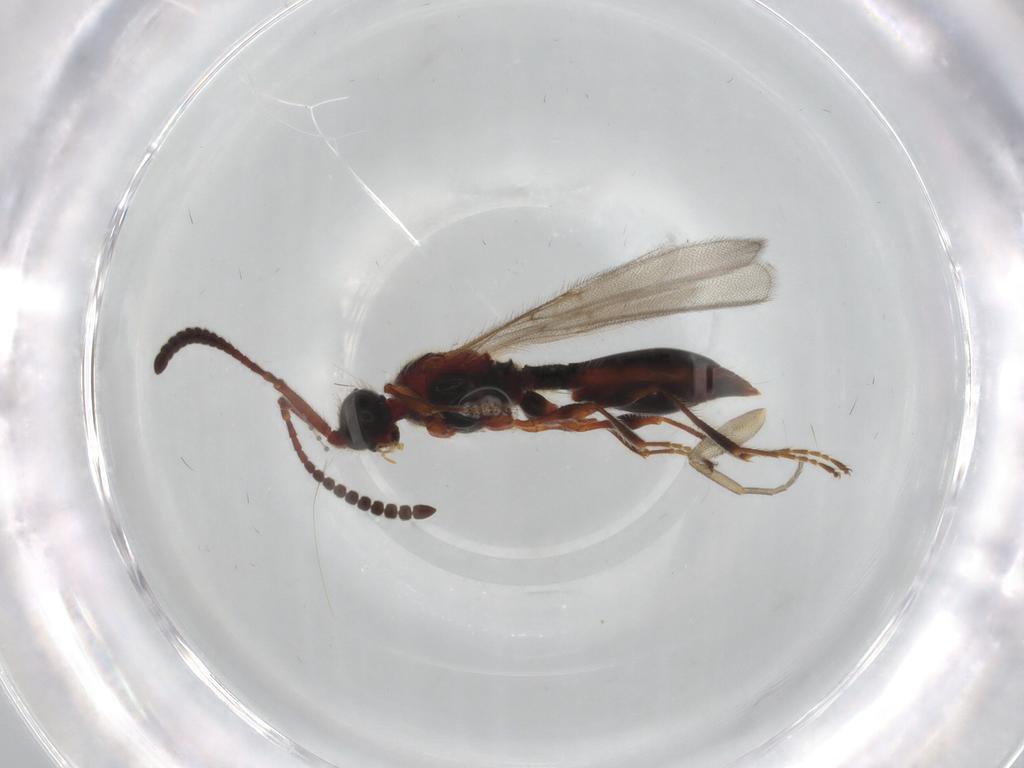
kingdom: Animalia
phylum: Arthropoda
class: Insecta
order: Hymenoptera
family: Diapriidae
